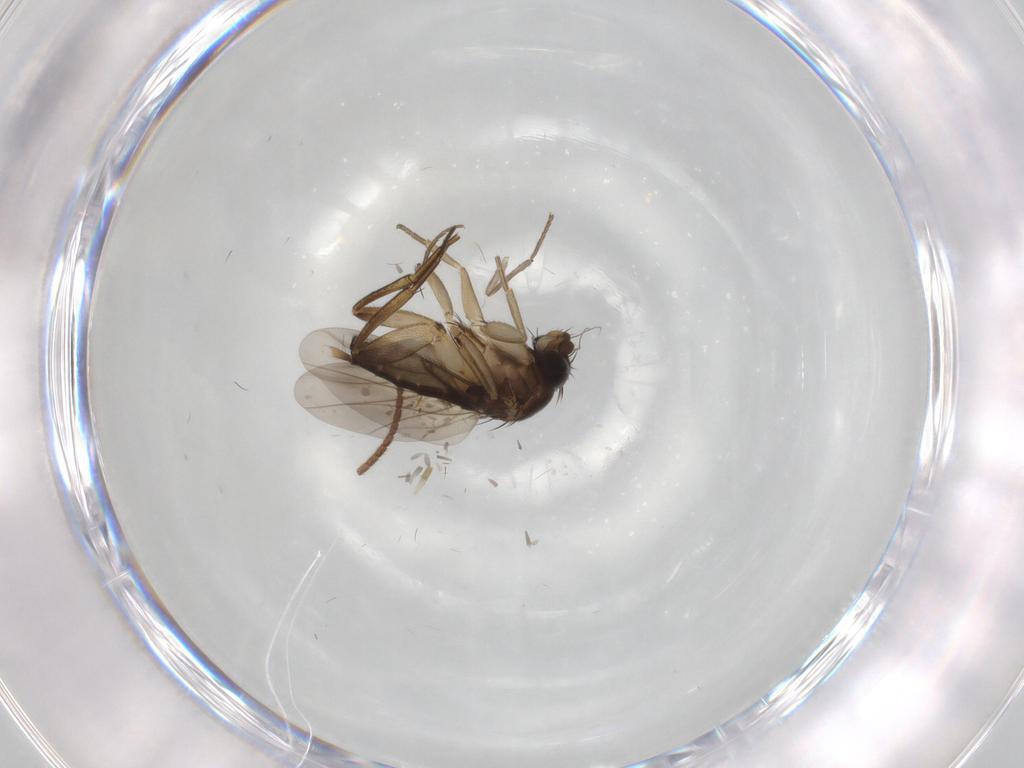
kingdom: Animalia
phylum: Arthropoda
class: Insecta
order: Diptera
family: Phoridae
